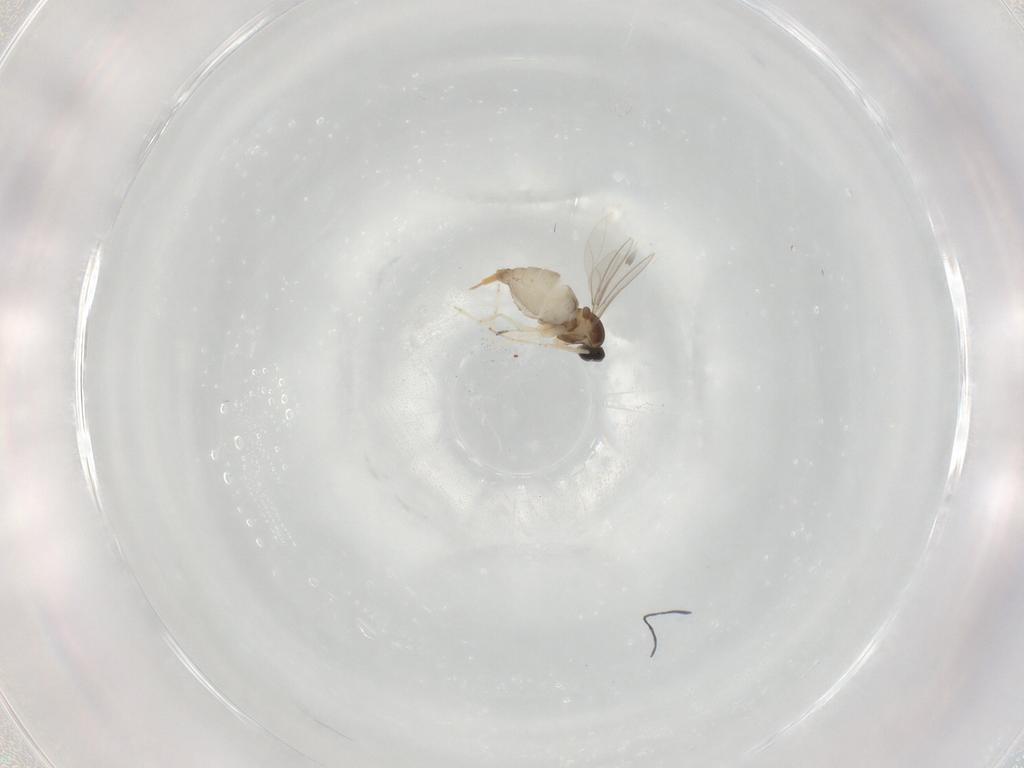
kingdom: Animalia
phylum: Arthropoda
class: Insecta
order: Diptera
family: Cecidomyiidae
